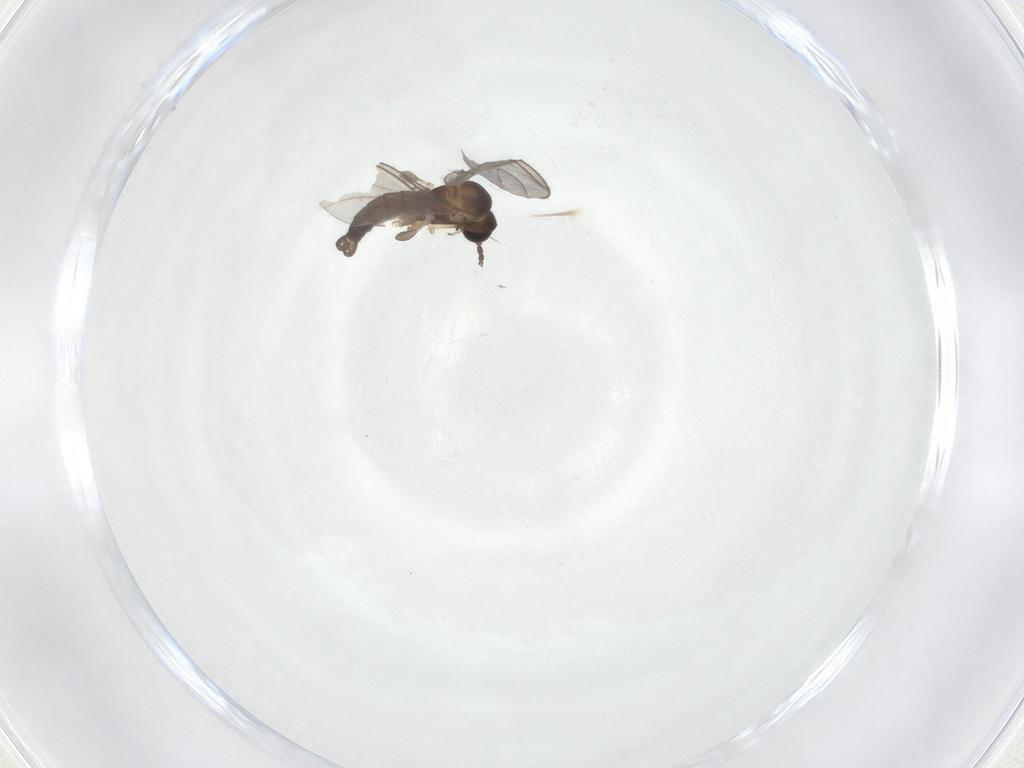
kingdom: Animalia
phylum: Arthropoda
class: Insecta
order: Diptera
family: Sciaridae
